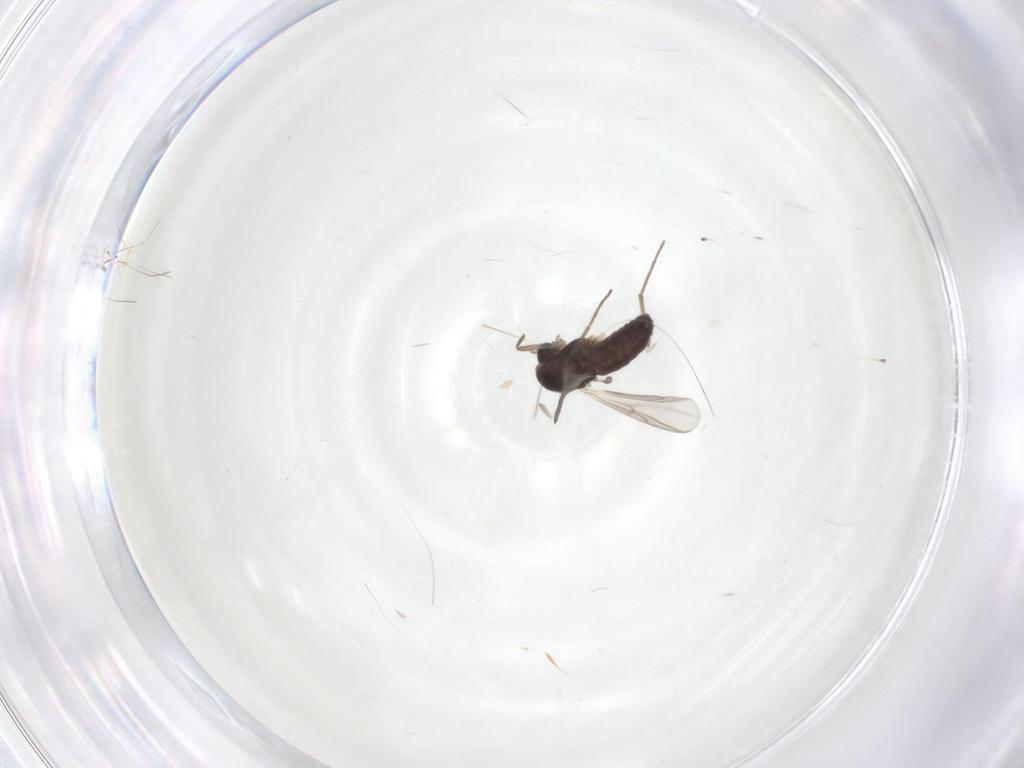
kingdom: Animalia
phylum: Arthropoda
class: Insecta
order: Diptera
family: Chironomidae
